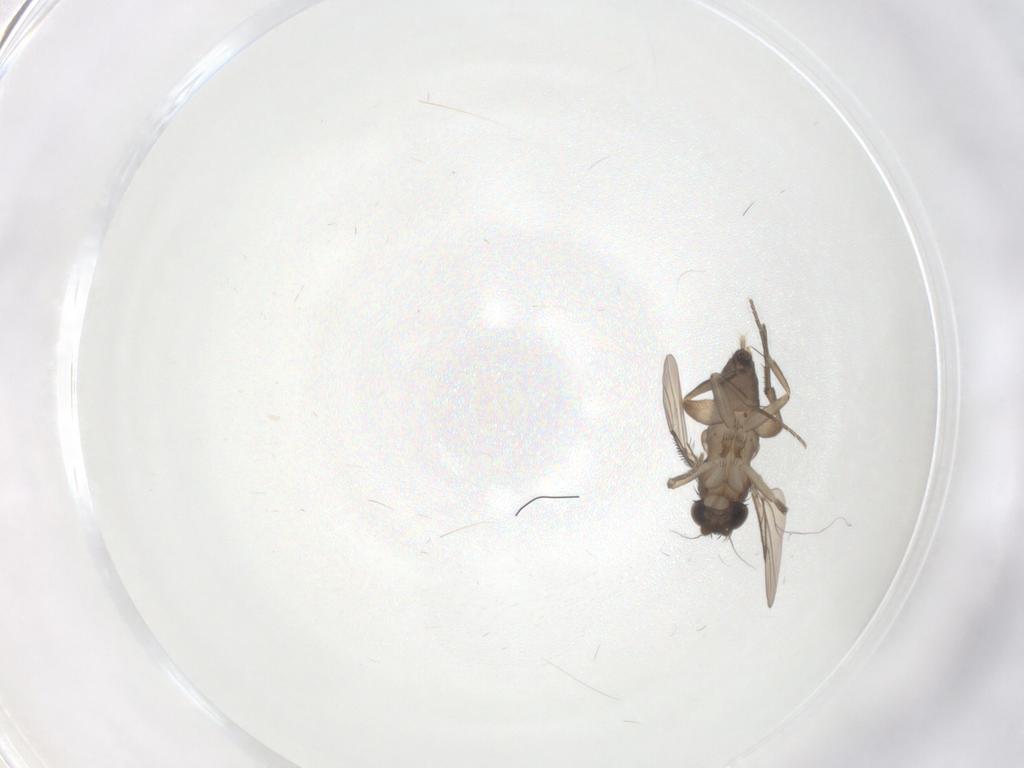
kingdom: Animalia
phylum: Arthropoda
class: Insecta
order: Diptera
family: Phoridae
